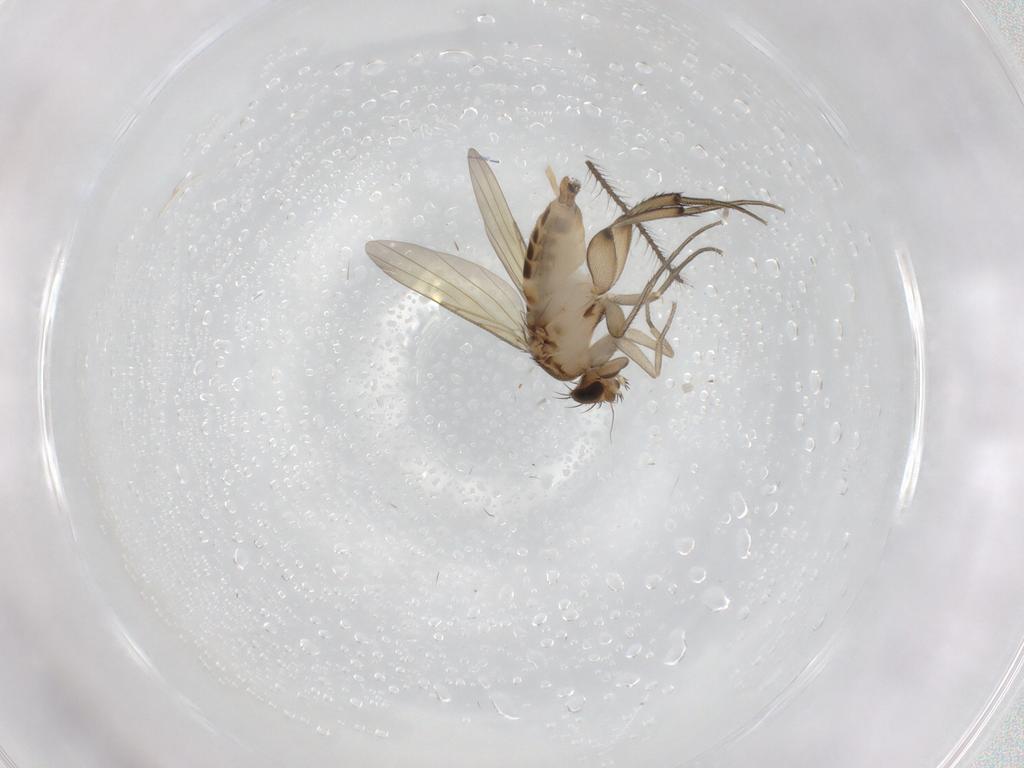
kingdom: Animalia
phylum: Arthropoda
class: Insecta
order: Diptera
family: Phoridae
